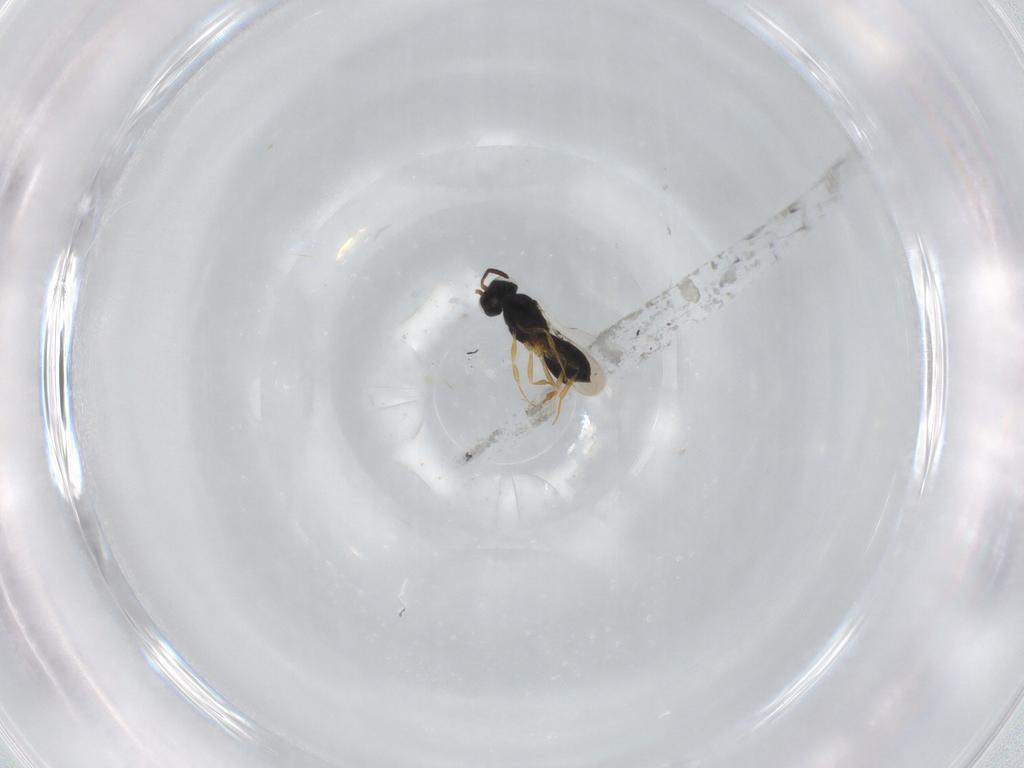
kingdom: Animalia
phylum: Arthropoda
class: Insecta
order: Hymenoptera
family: Scelionidae
